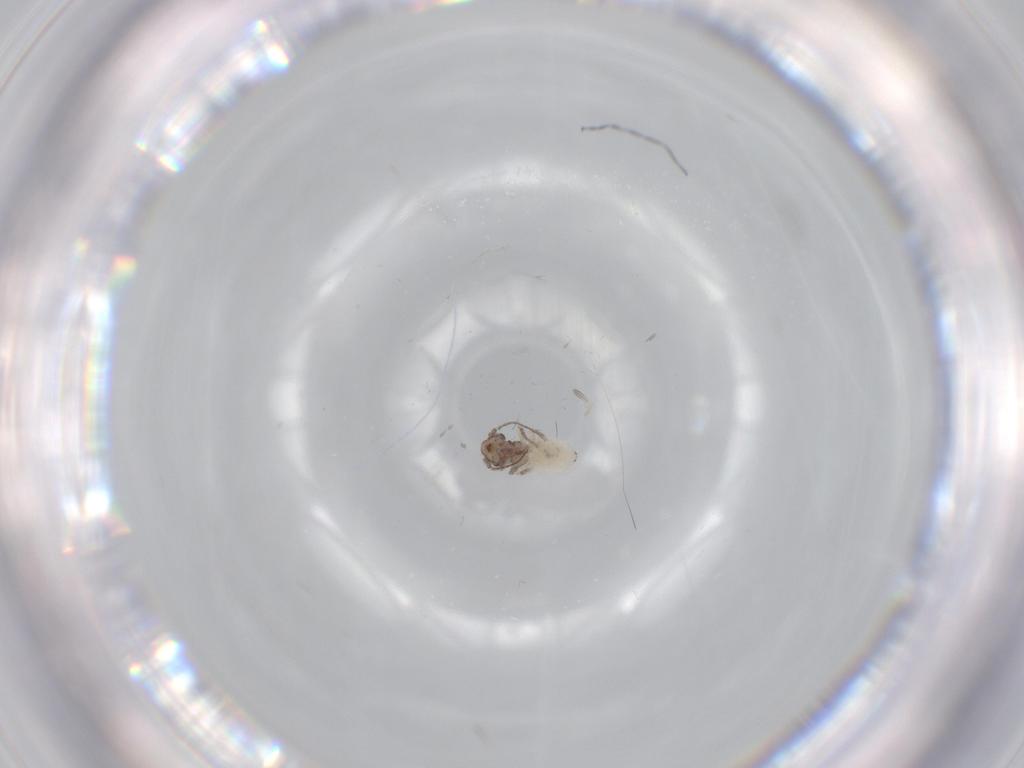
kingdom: Animalia
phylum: Arthropoda
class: Insecta
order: Psocodea
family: Lepidopsocidae
